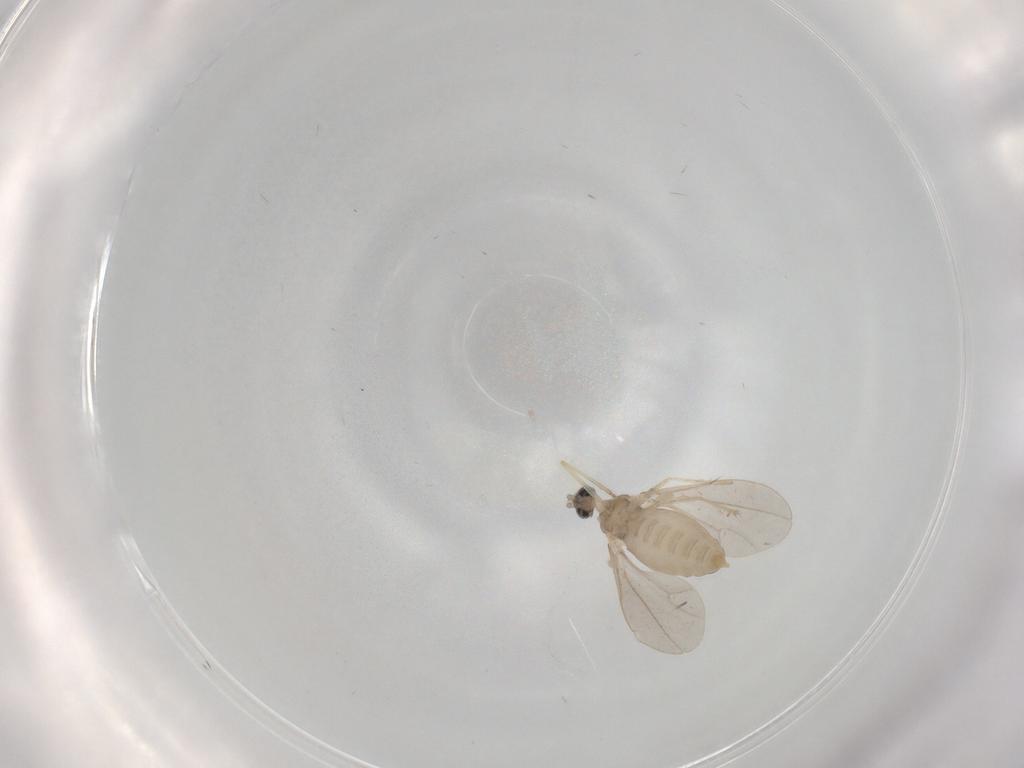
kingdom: Animalia
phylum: Arthropoda
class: Insecta
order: Diptera
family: Cecidomyiidae
